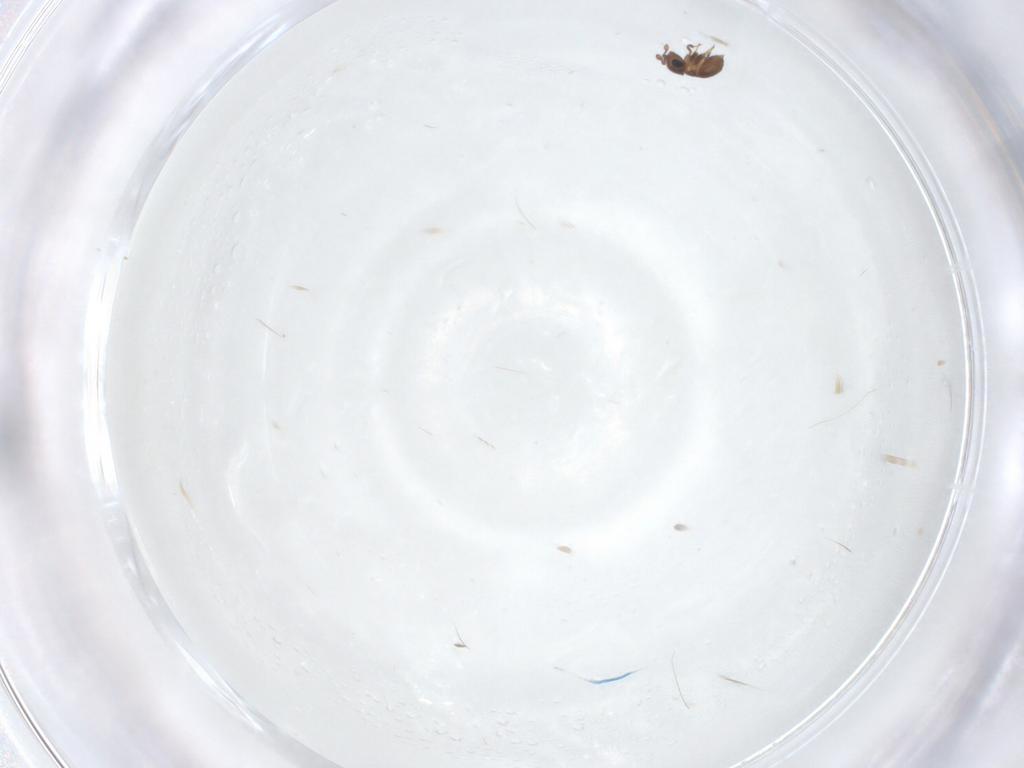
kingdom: Animalia
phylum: Arthropoda
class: Insecta
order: Hymenoptera
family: Scelionidae
